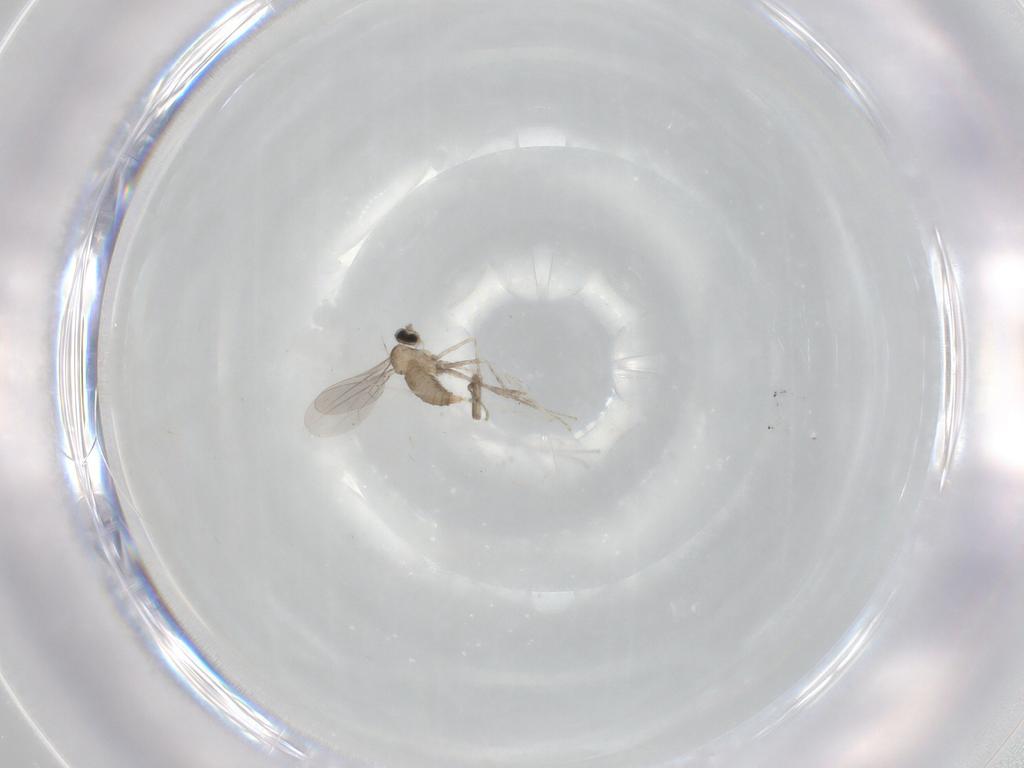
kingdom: Animalia
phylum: Arthropoda
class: Insecta
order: Diptera
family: Cecidomyiidae
